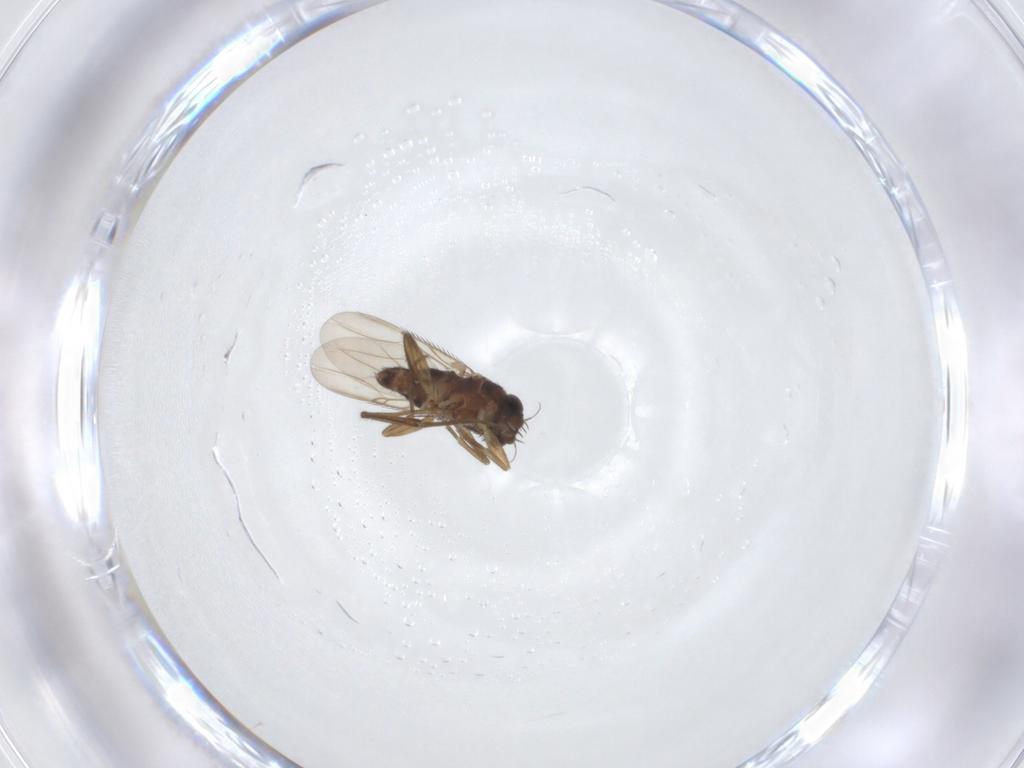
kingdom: Animalia
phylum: Arthropoda
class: Insecta
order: Diptera
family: Phoridae
